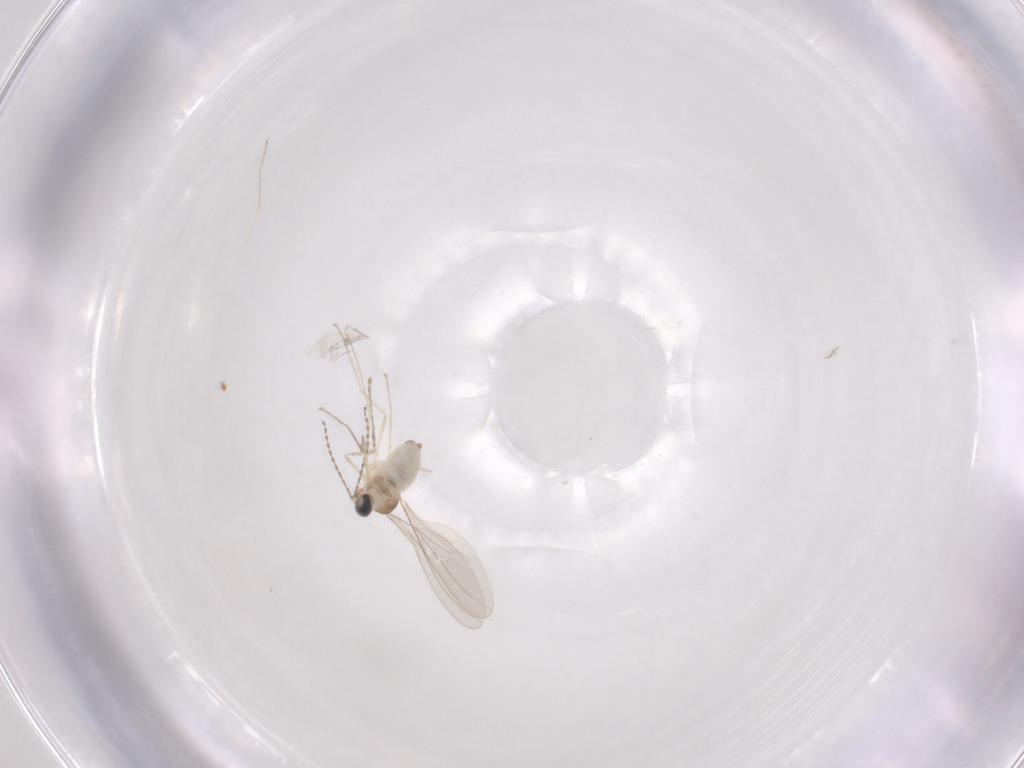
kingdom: Animalia
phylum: Arthropoda
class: Insecta
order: Diptera
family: Cecidomyiidae
